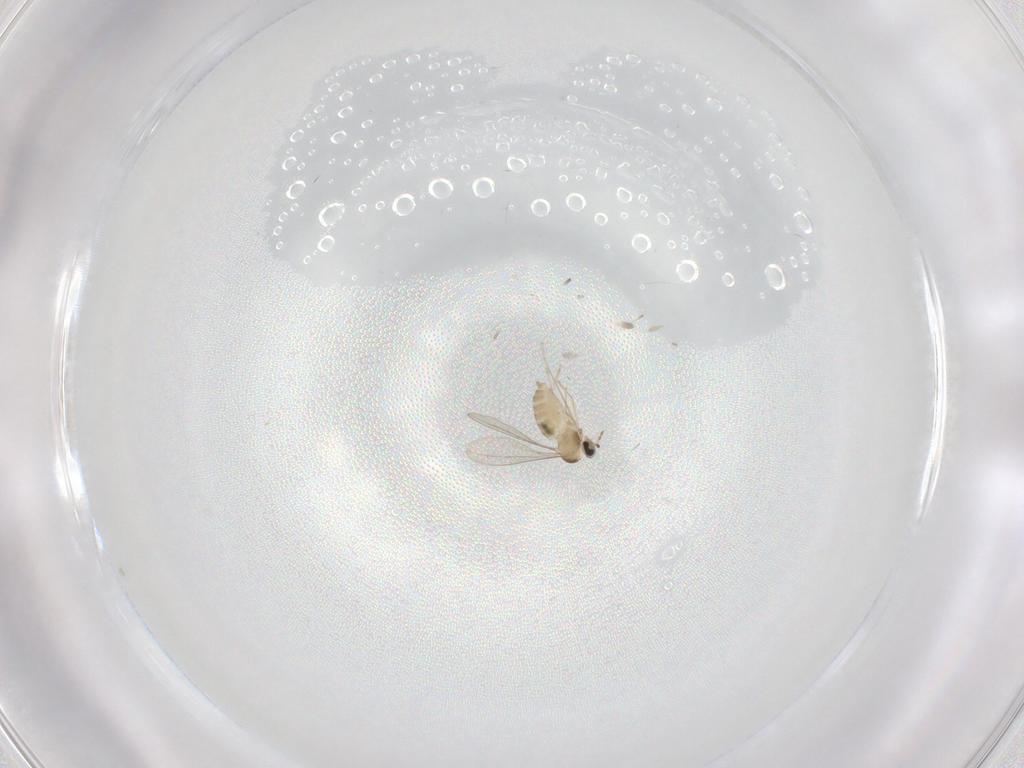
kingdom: Animalia
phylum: Arthropoda
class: Insecta
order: Diptera
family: Cecidomyiidae
